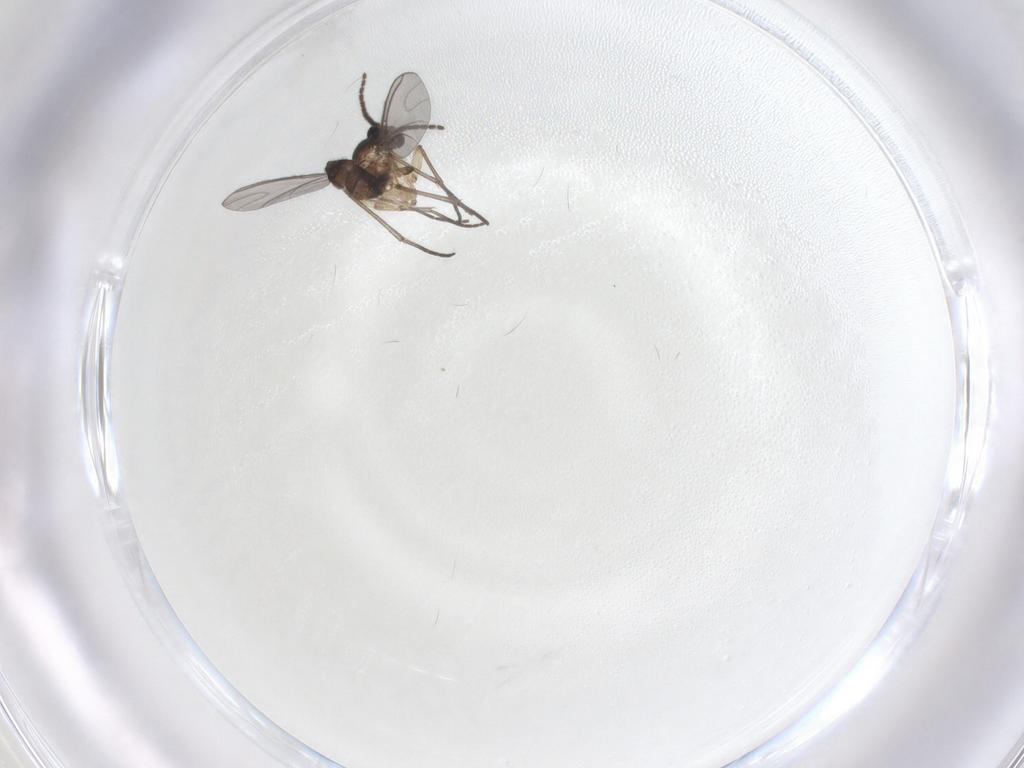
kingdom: Animalia
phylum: Arthropoda
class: Insecta
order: Diptera
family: Sciaridae
